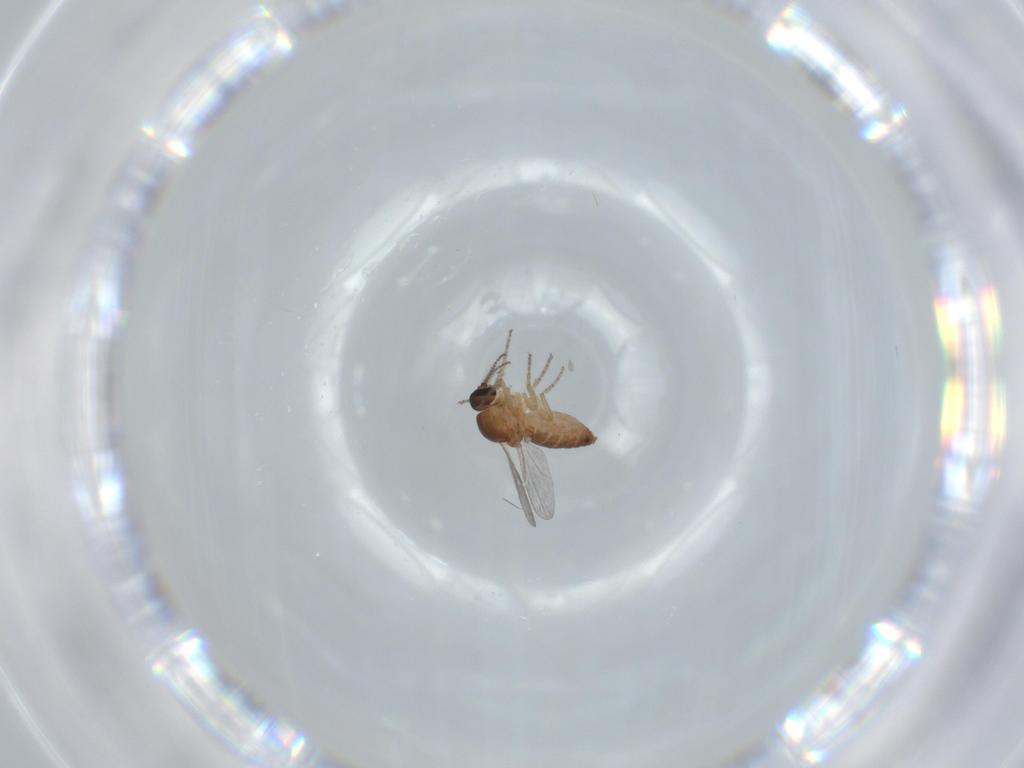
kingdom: Animalia
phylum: Arthropoda
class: Insecta
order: Diptera
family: Ceratopogonidae
